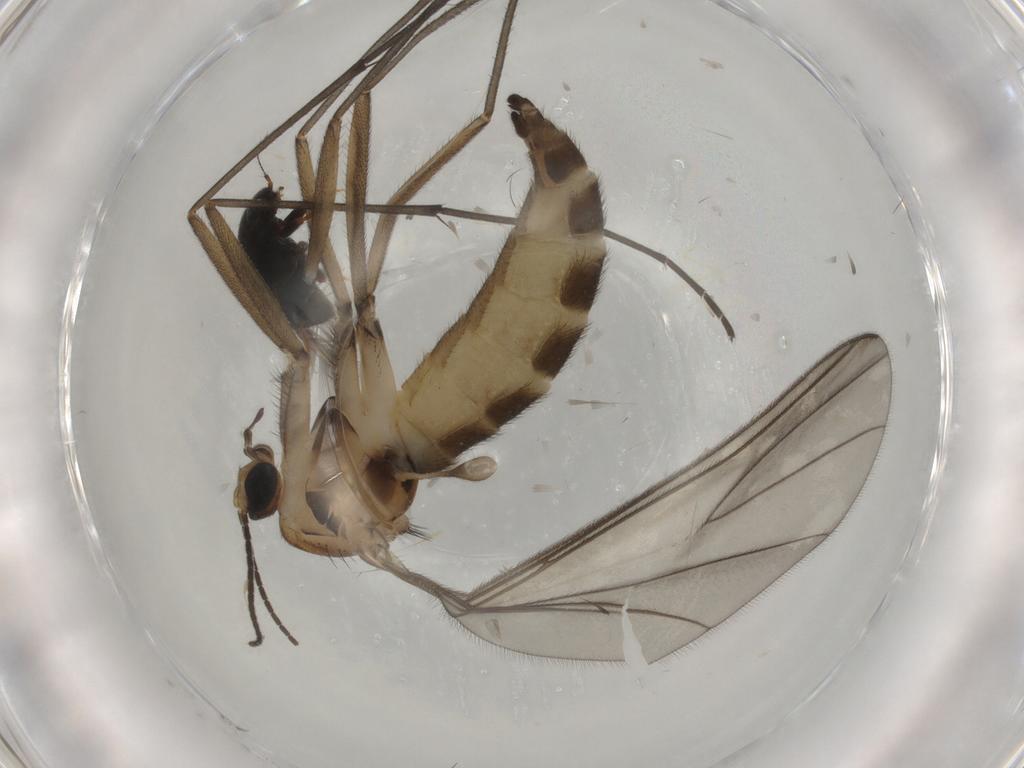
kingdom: Animalia
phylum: Arthropoda
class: Insecta
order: Diptera
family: Sciaridae
